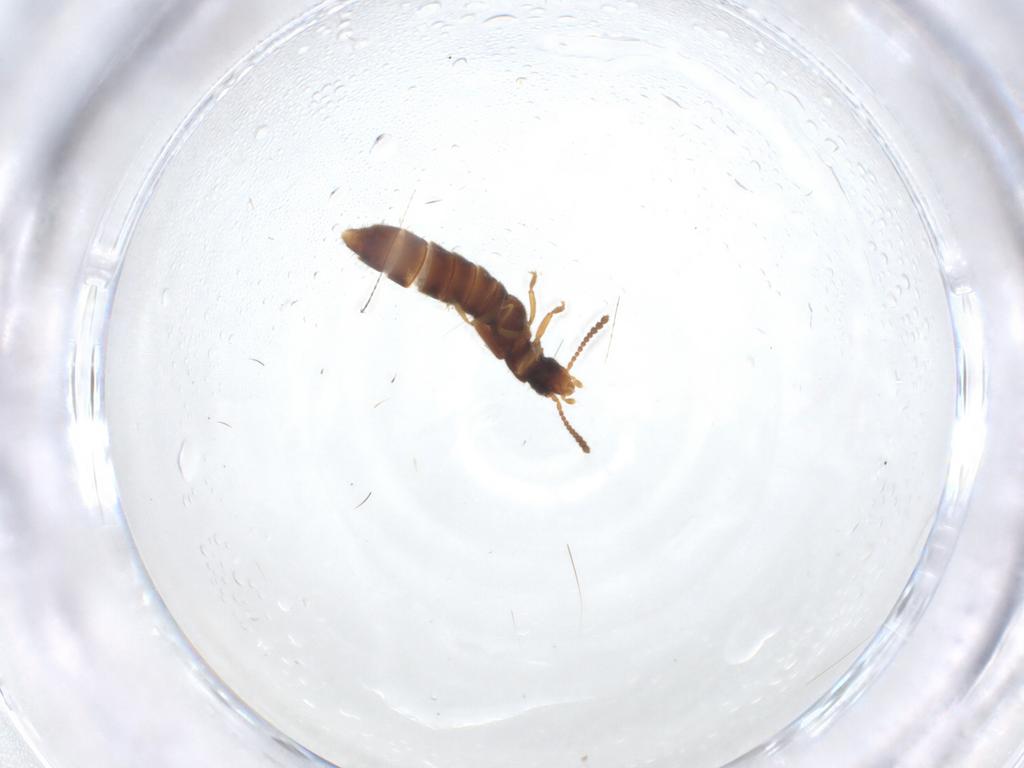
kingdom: Animalia
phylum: Arthropoda
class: Insecta
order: Coleoptera
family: Staphylinidae
